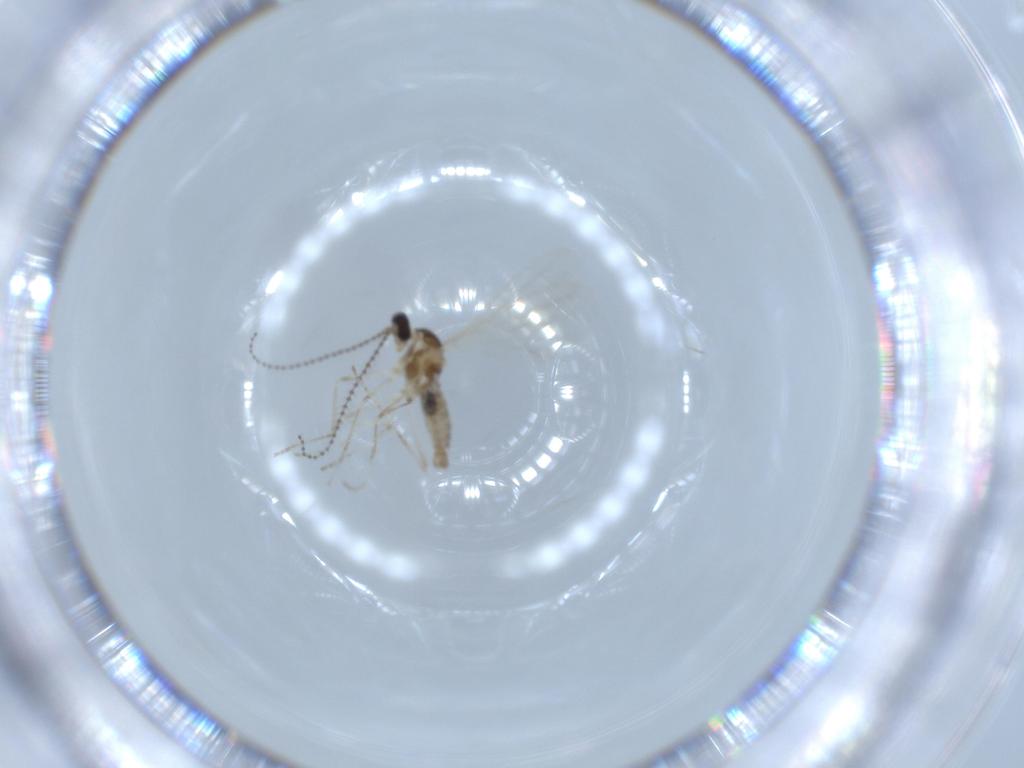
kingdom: Animalia
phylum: Arthropoda
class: Insecta
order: Diptera
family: Cecidomyiidae
